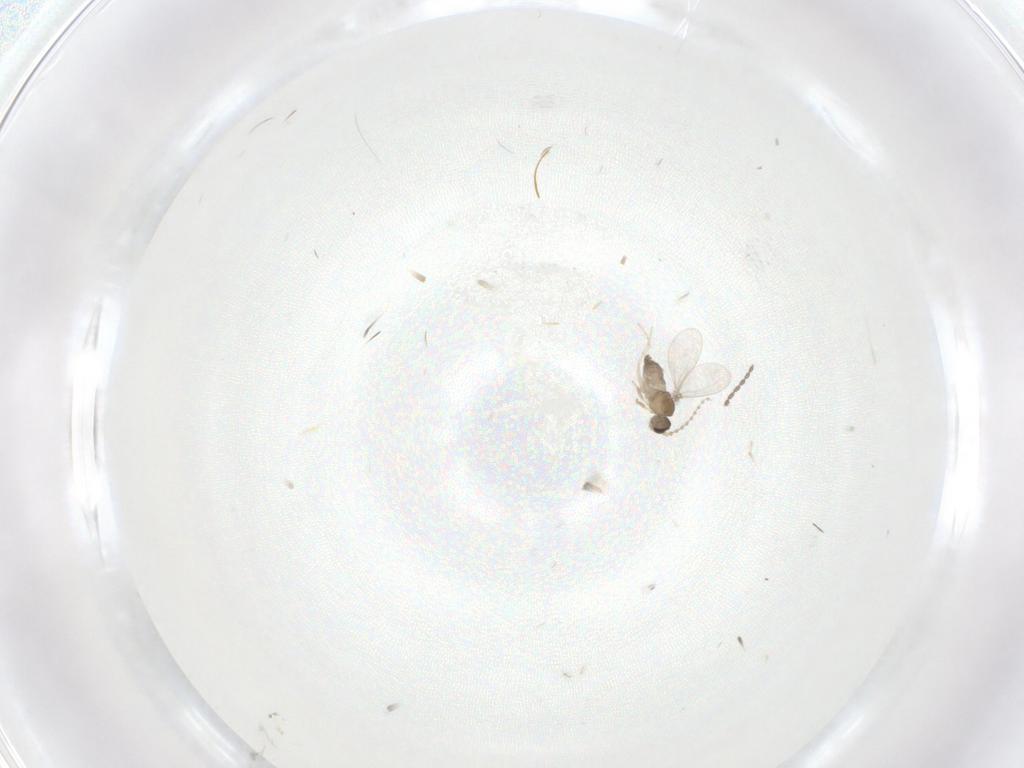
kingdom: Animalia
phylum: Arthropoda
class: Insecta
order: Diptera
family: Cecidomyiidae
